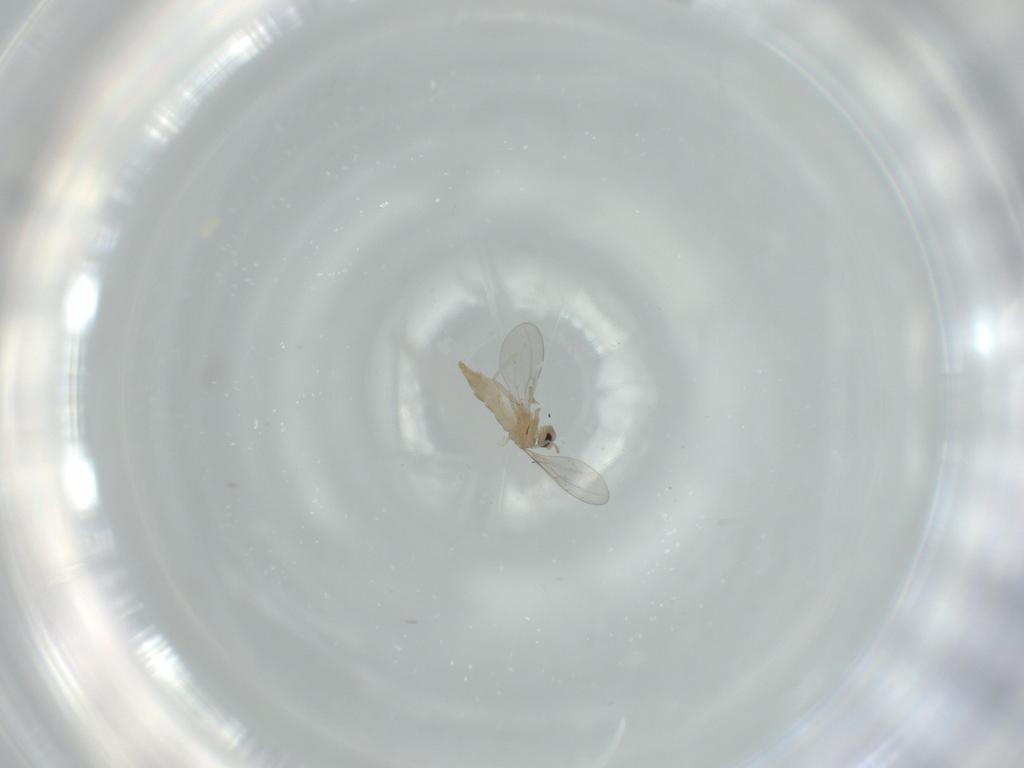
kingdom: Animalia
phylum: Arthropoda
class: Insecta
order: Diptera
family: Cecidomyiidae
